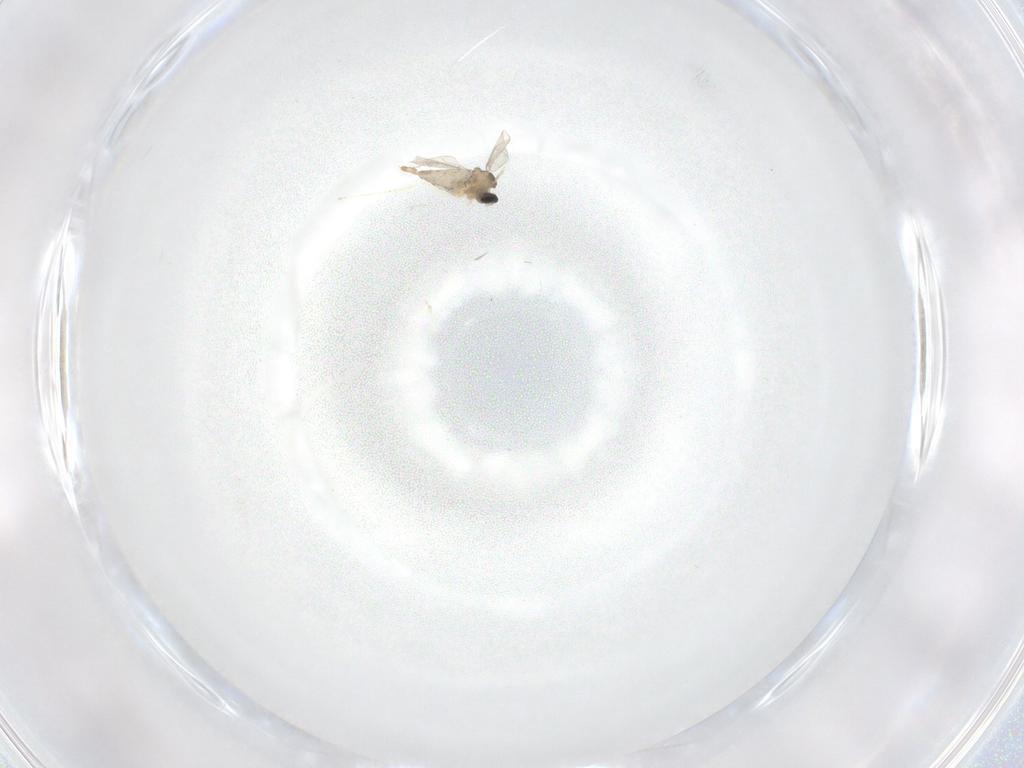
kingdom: Animalia
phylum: Arthropoda
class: Insecta
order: Diptera
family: Cecidomyiidae
